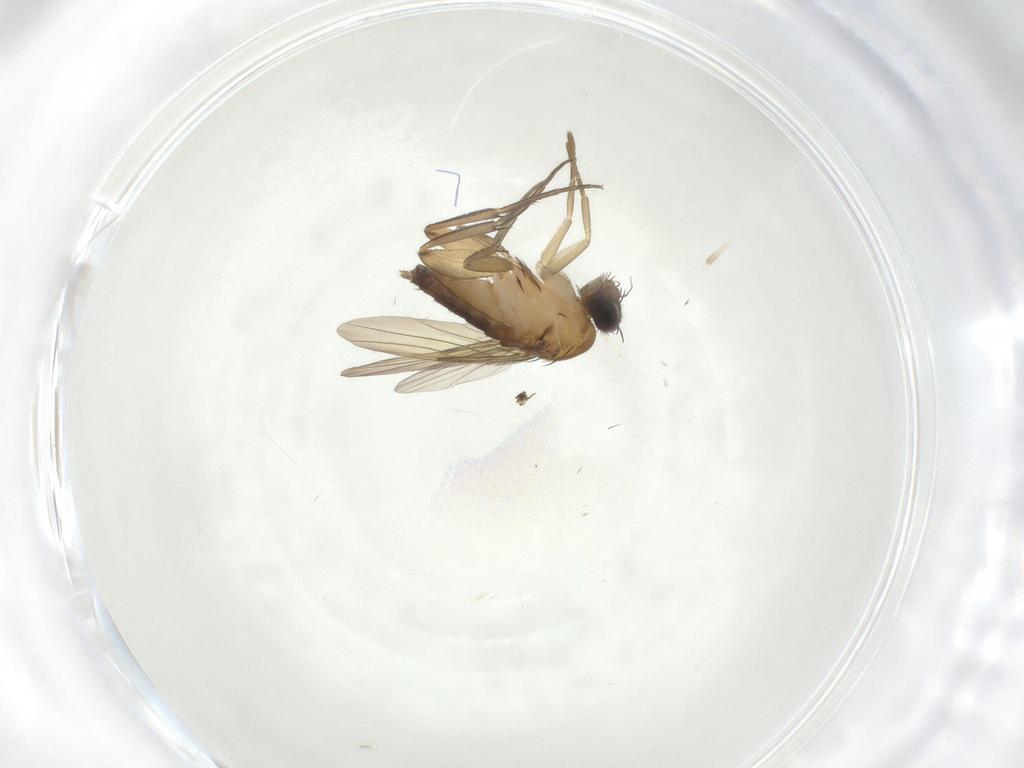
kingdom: Animalia
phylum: Arthropoda
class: Insecta
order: Diptera
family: Phoridae
